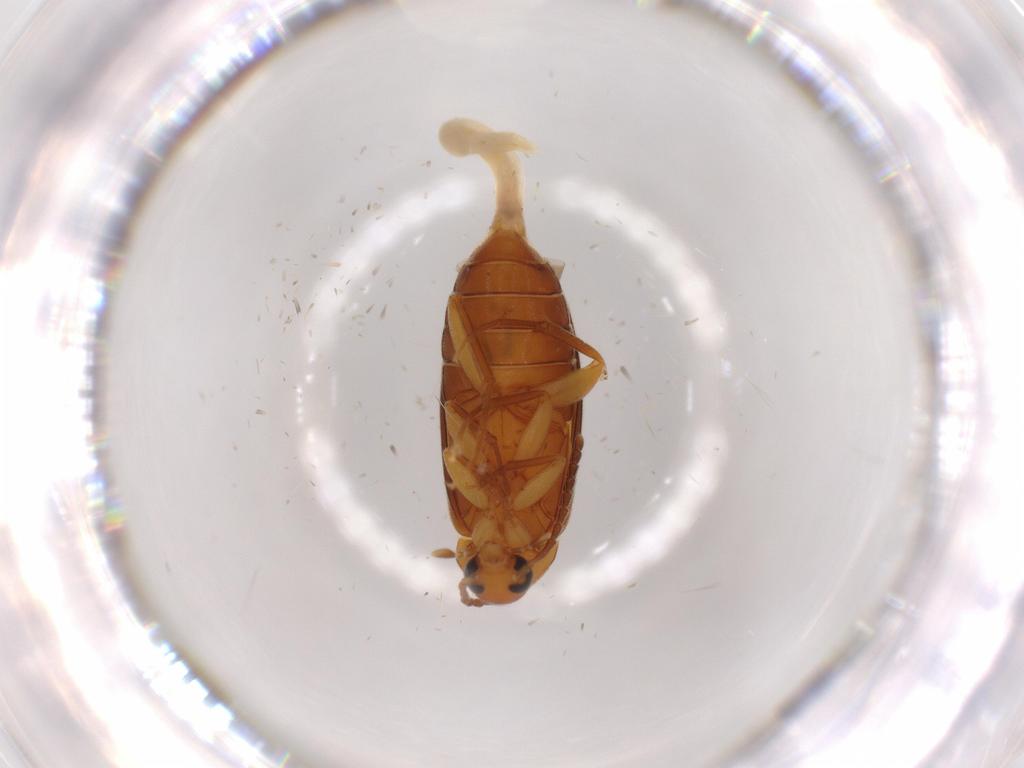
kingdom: Animalia
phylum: Arthropoda
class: Insecta
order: Coleoptera
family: Scraptiidae
